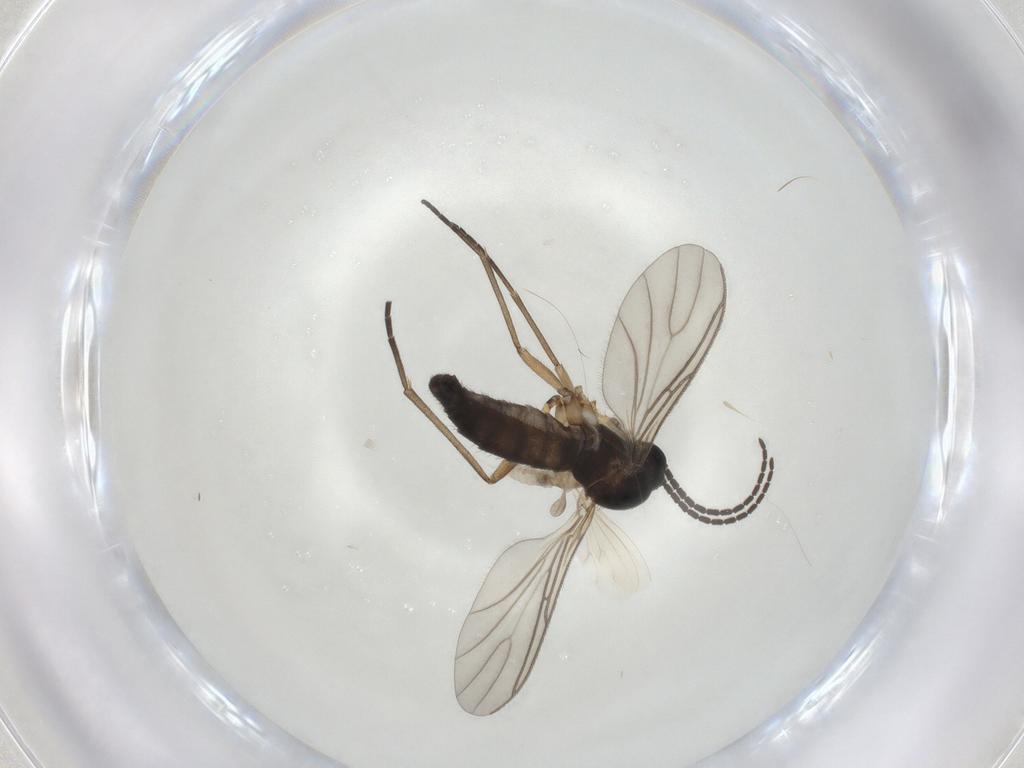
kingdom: Animalia
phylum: Arthropoda
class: Insecta
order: Diptera
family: Sciaridae
